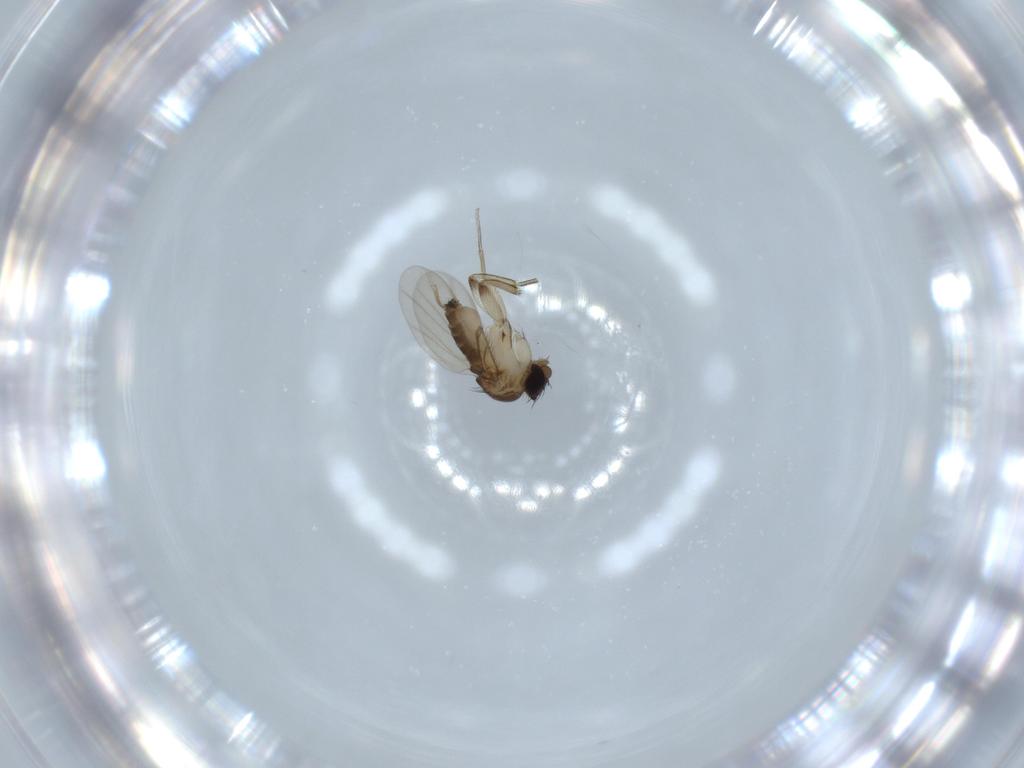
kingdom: Animalia
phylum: Arthropoda
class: Insecta
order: Diptera
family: Phoridae
